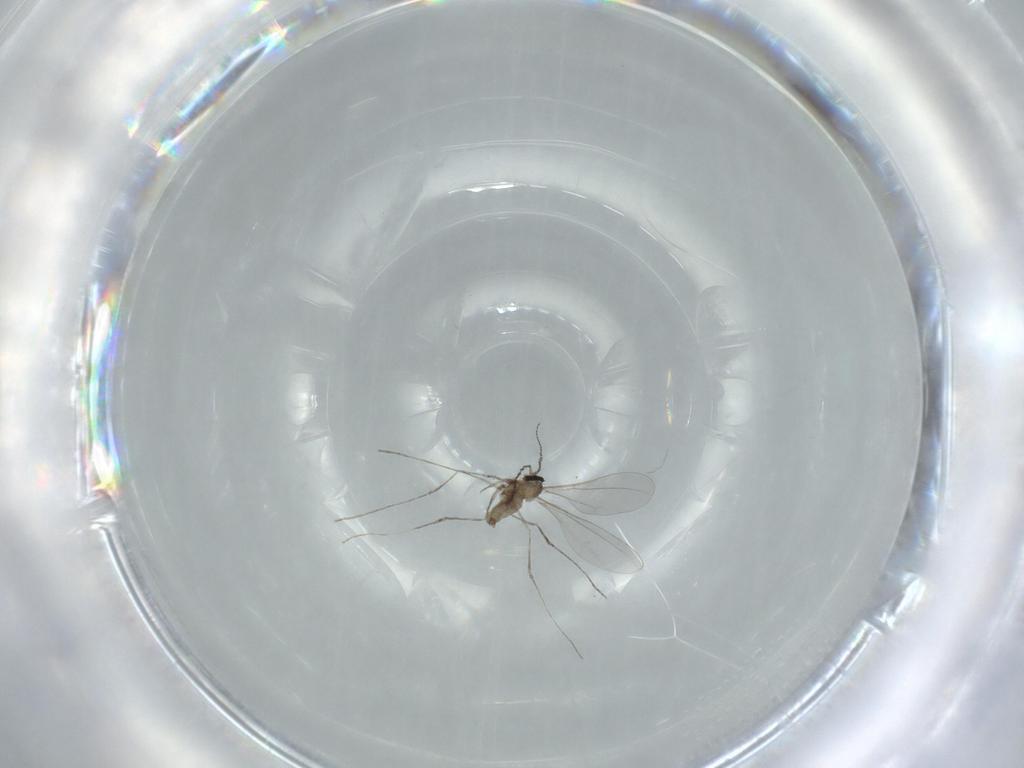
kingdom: Animalia
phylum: Arthropoda
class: Insecta
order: Diptera
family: Cecidomyiidae
